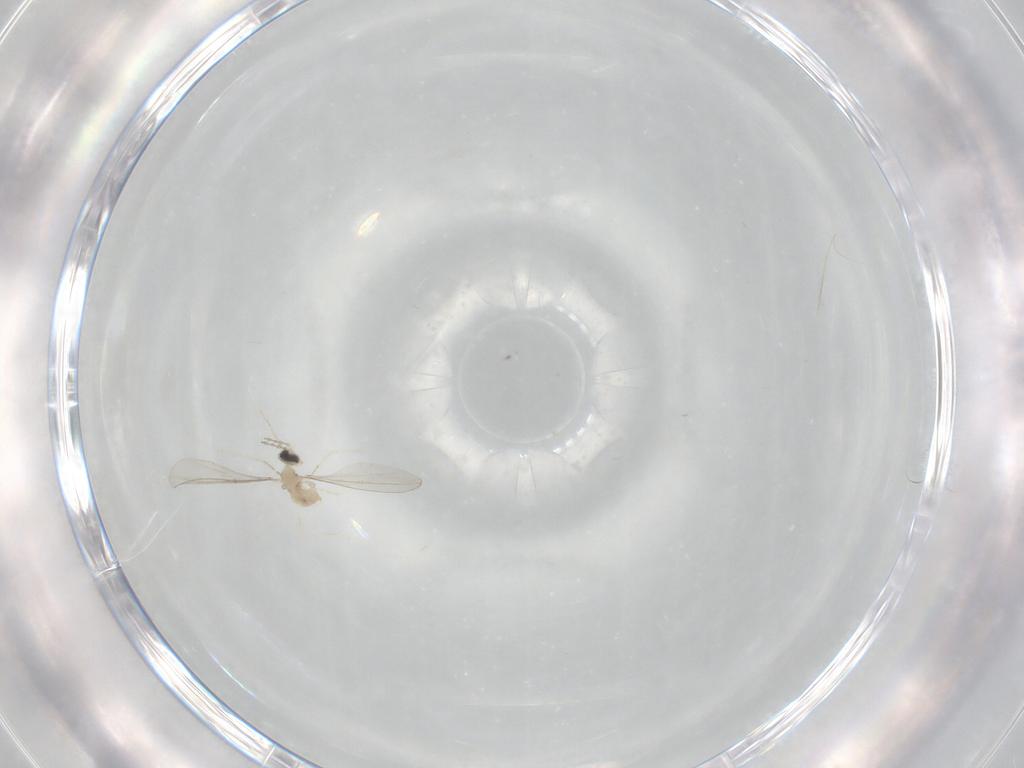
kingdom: Animalia
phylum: Arthropoda
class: Insecta
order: Diptera
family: Cecidomyiidae
